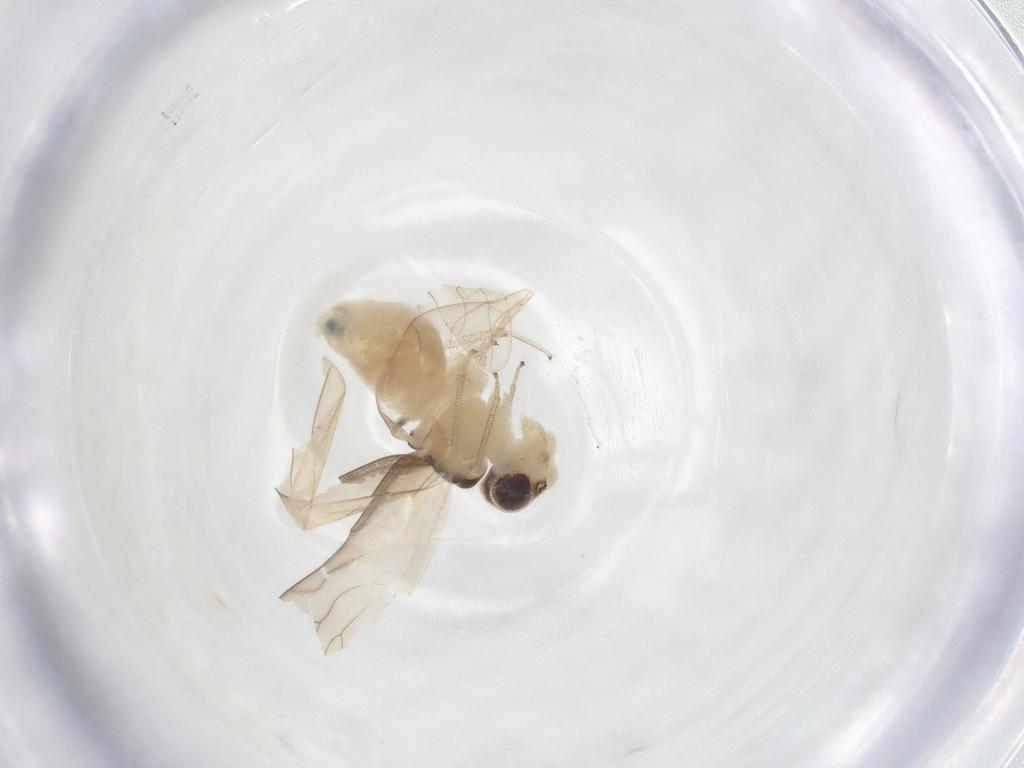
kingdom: Animalia
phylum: Arthropoda
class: Insecta
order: Psocodea
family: Caeciliusidae
